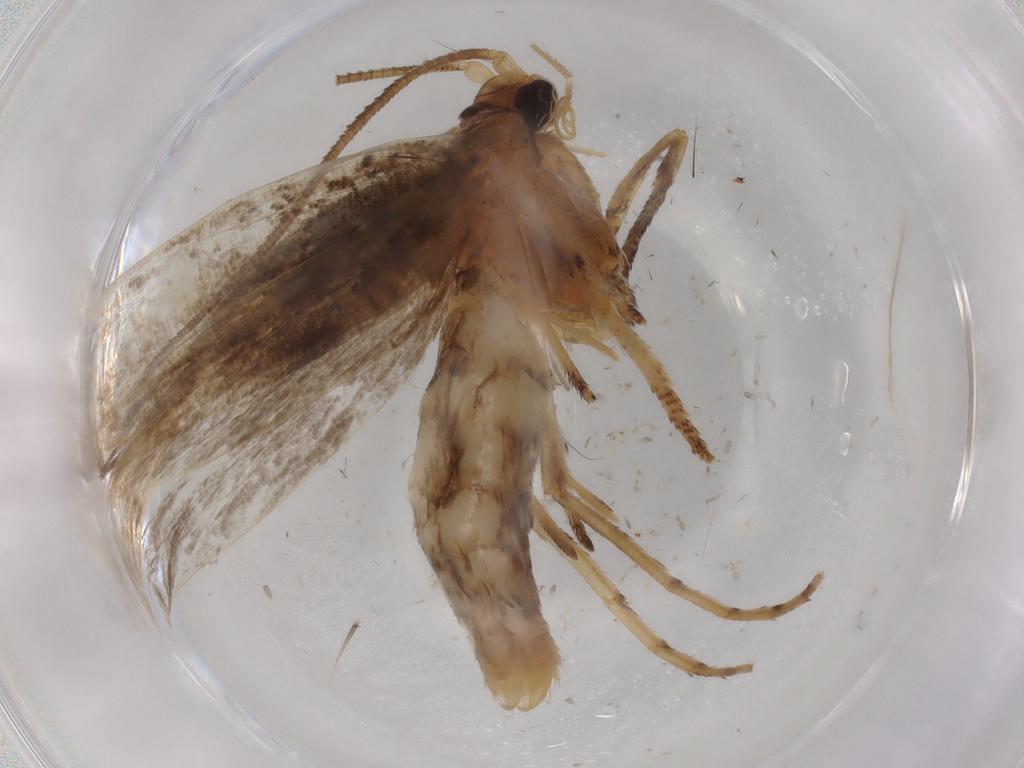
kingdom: Animalia
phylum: Arthropoda
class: Insecta
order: Lepidoptera
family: Yponomeutidae
